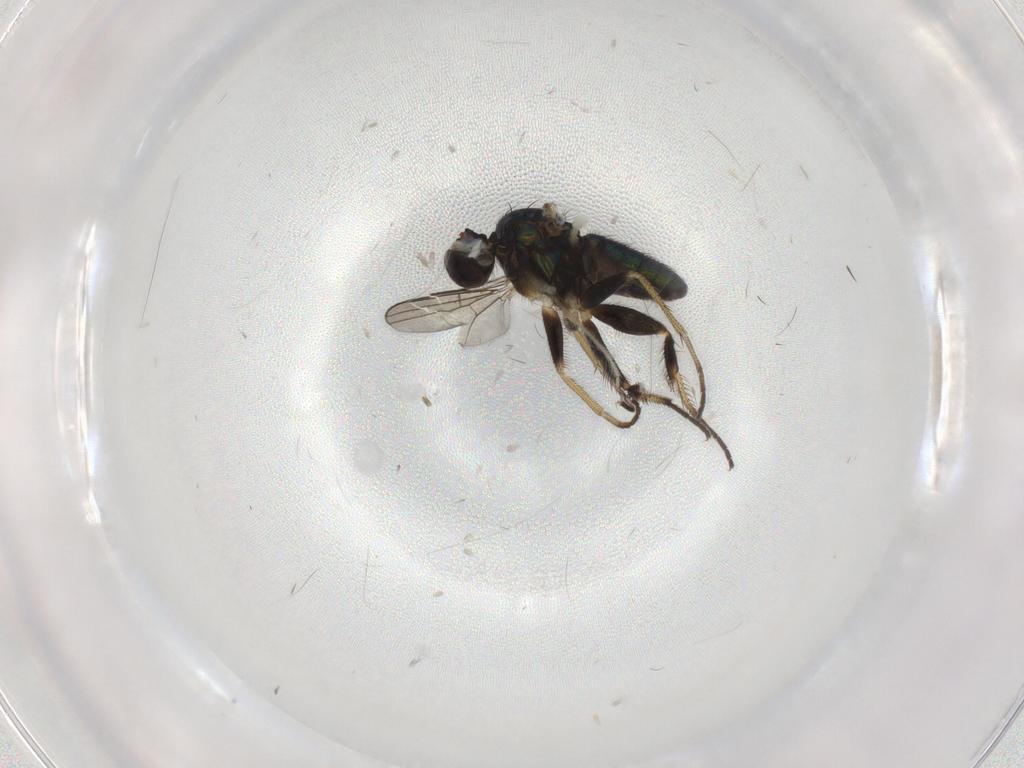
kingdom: Animalia
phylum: Arthropoda
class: Insecta
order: Diptera
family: Dolichopodidae
